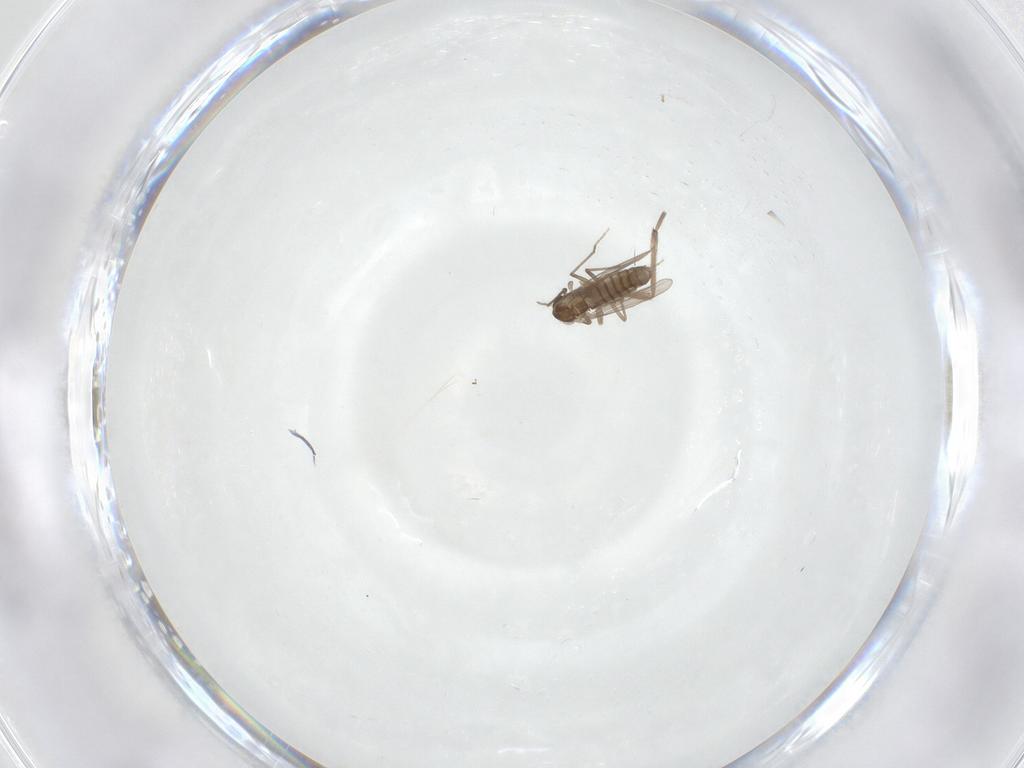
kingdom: Animalia
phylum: Arthropoda
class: Insecta
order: Diptera
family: Chironomidae
